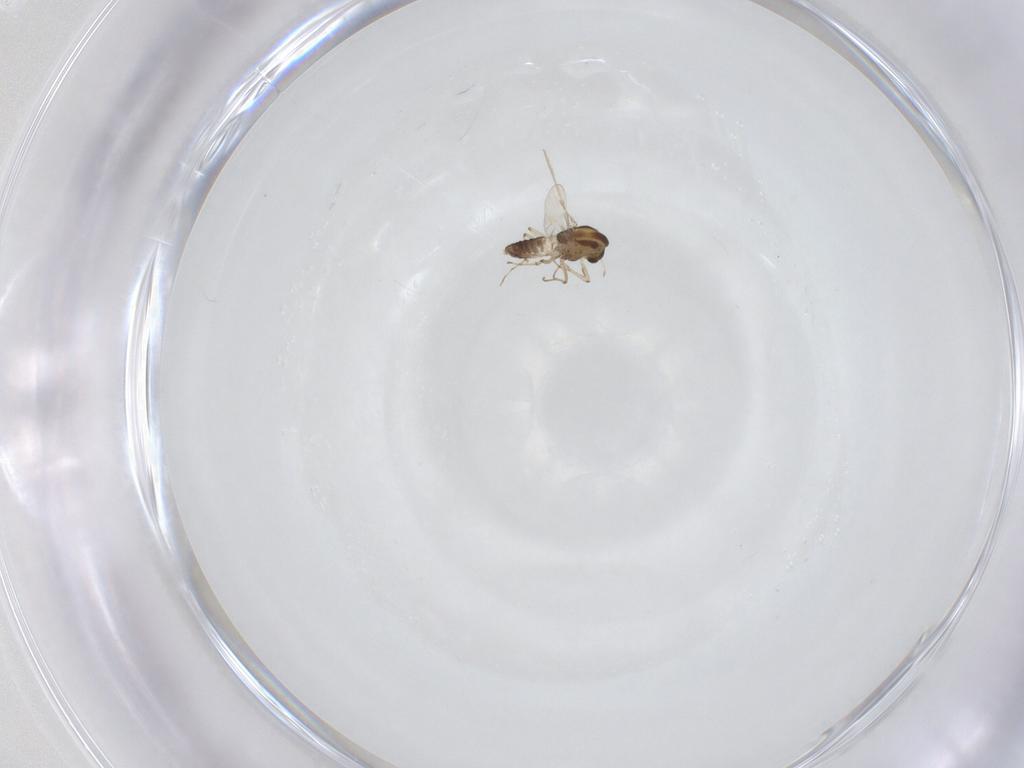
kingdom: Animalia
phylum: Arthropoda
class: Insecta
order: Diptera
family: Chironomidae
